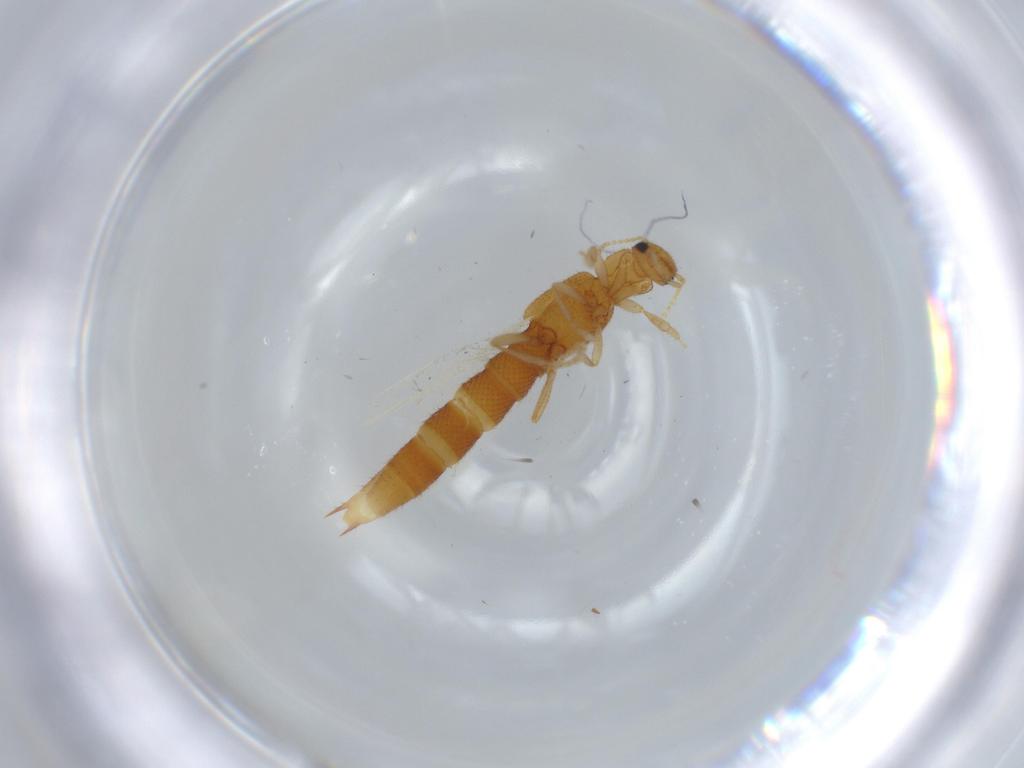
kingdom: Animalia
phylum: Arthropoda
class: Insecta
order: Coleoptera
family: Staphylinidae
